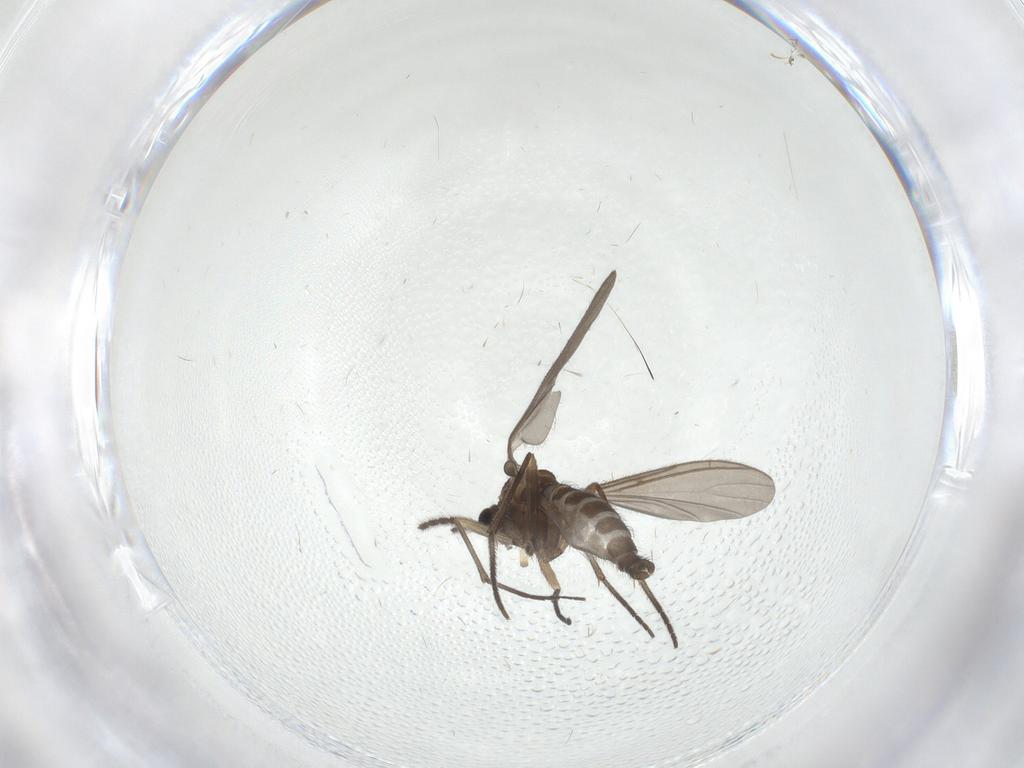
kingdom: Animalia
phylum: Arthropoda
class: Insecta
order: Diptera
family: Sciaridae
